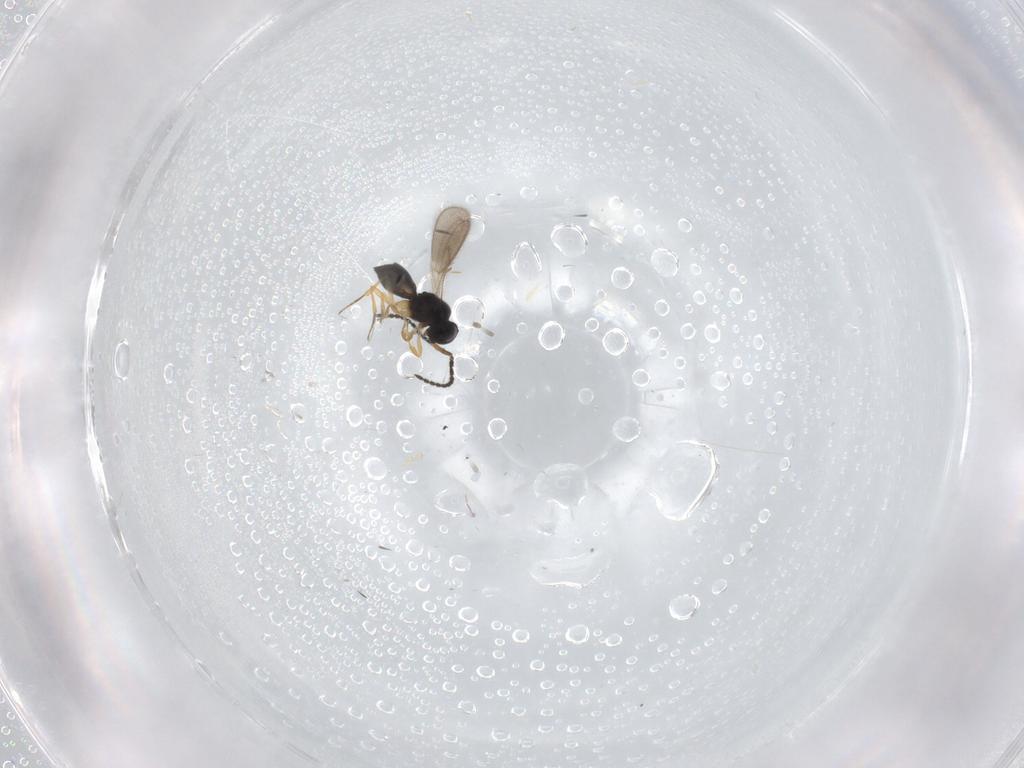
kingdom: Animalia
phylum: Arthropoda
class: Insecta
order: Hymenoptera
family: Scelionidae
